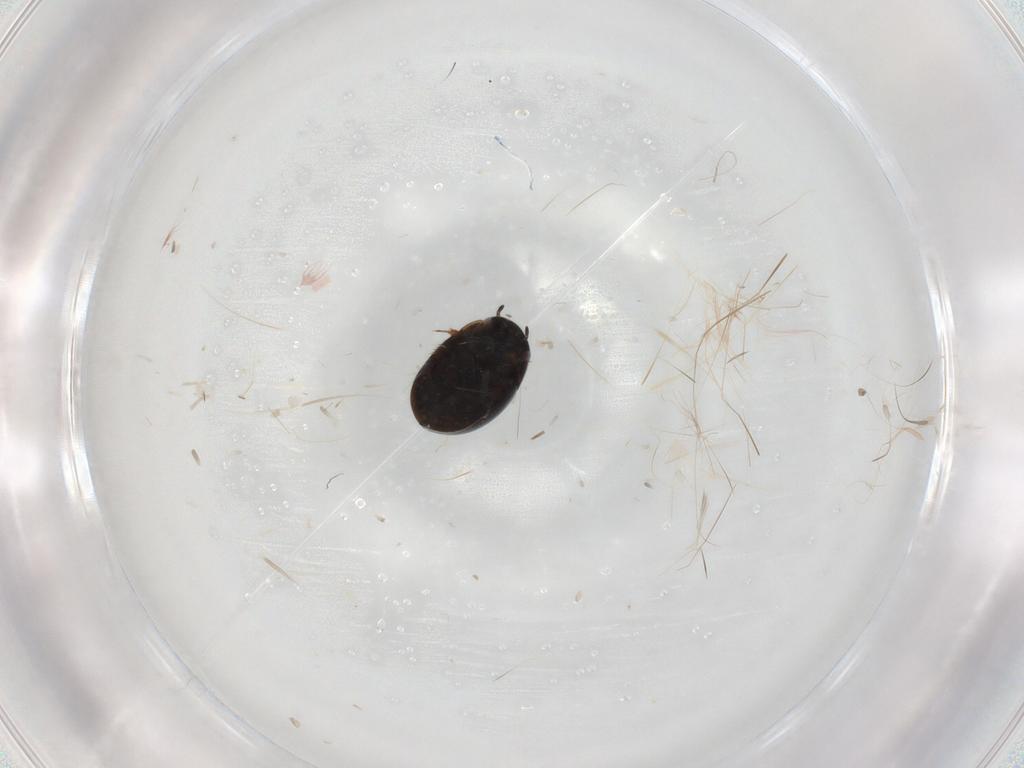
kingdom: Animalia
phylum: Arthropoda
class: Insecta
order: Coleoptera
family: Hydrophilidae
